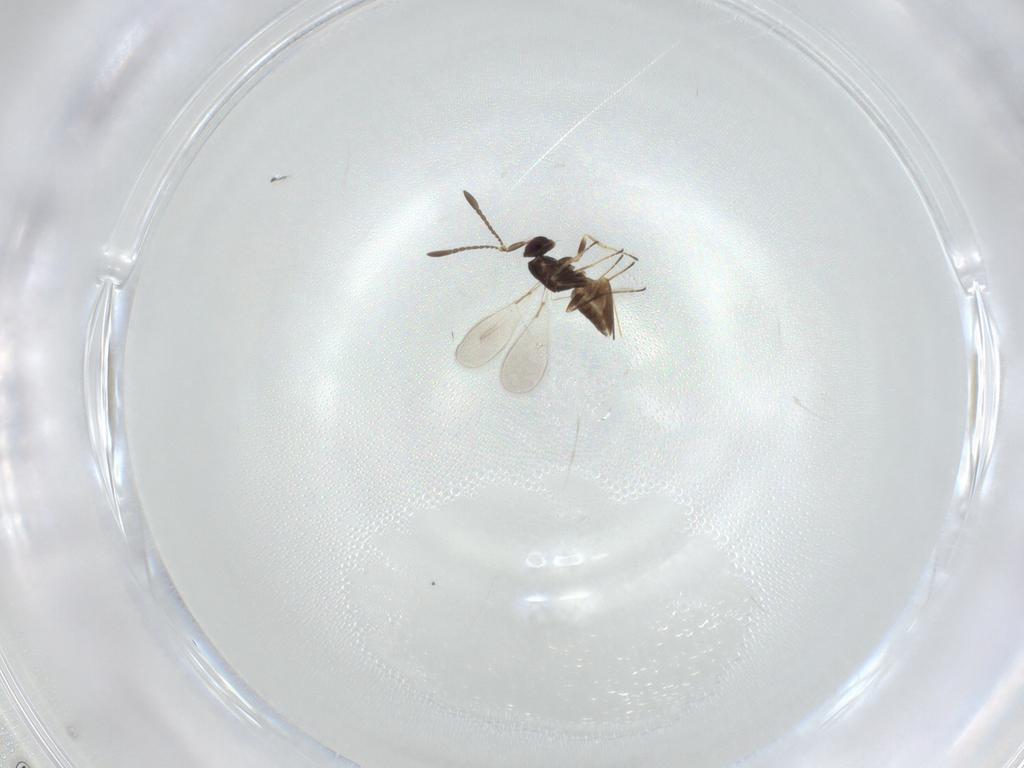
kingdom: Animalia
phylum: Arthropoda
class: Insecta
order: Hymenoptera
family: Mymaridae
